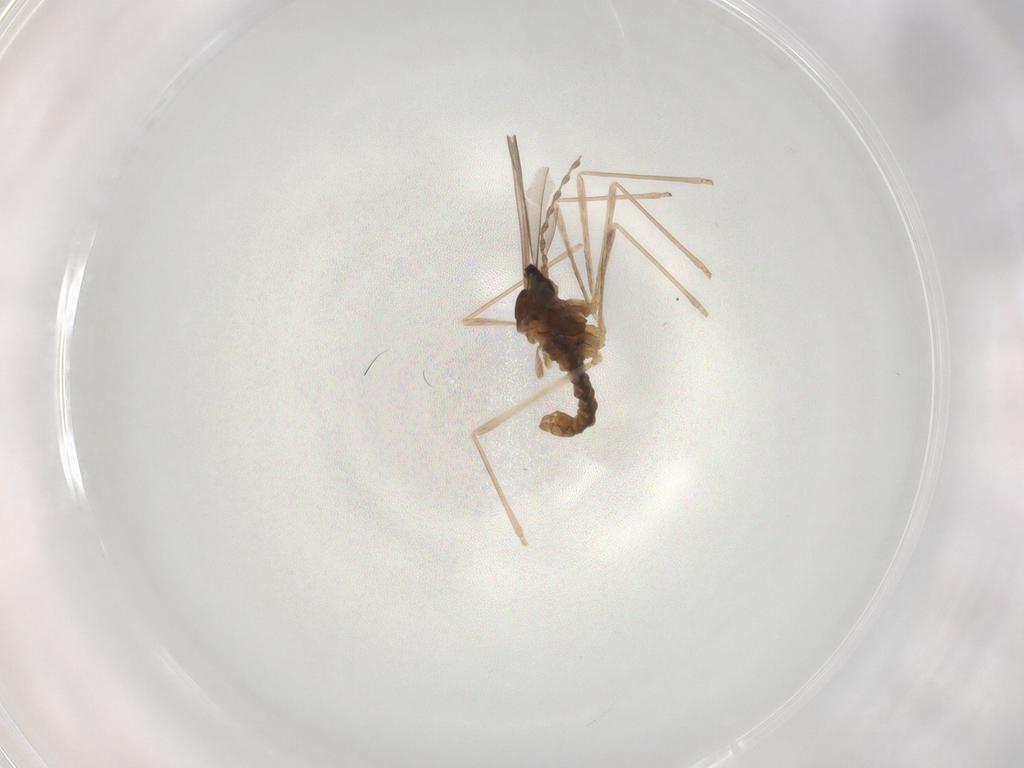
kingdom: Animalia
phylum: Arthropoda
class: Insecta
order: Diptera
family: Cecidomyiidae
